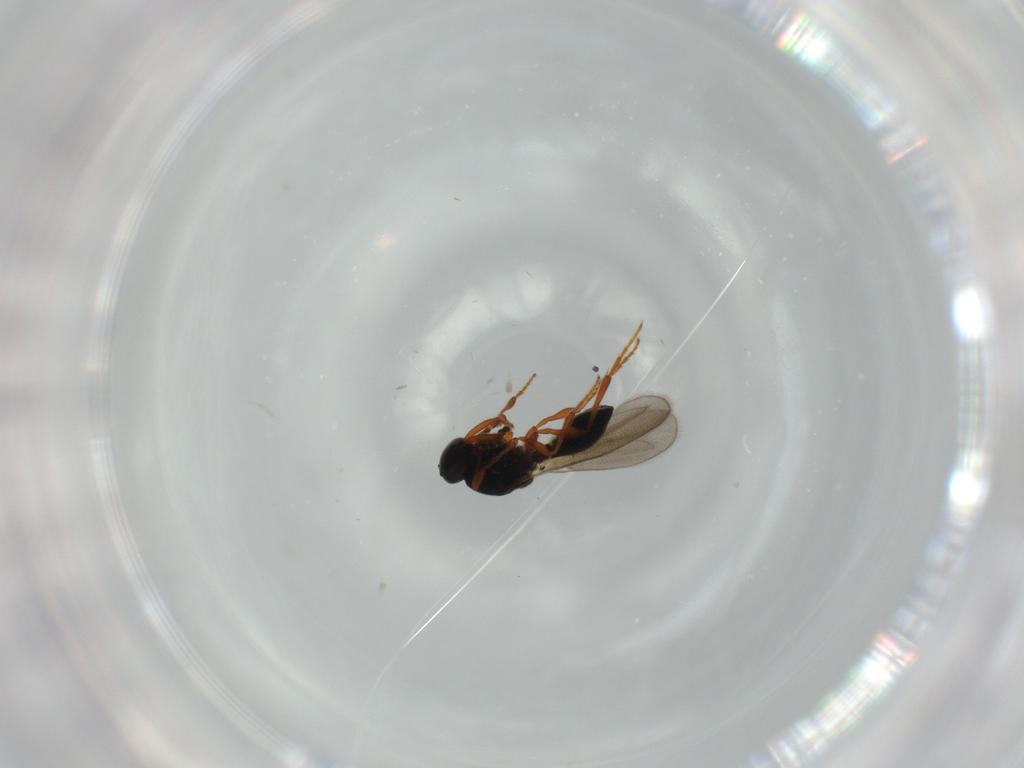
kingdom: Animalia
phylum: Arthropoda
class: Insecta
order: Hymenoptera
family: Platygastridae
